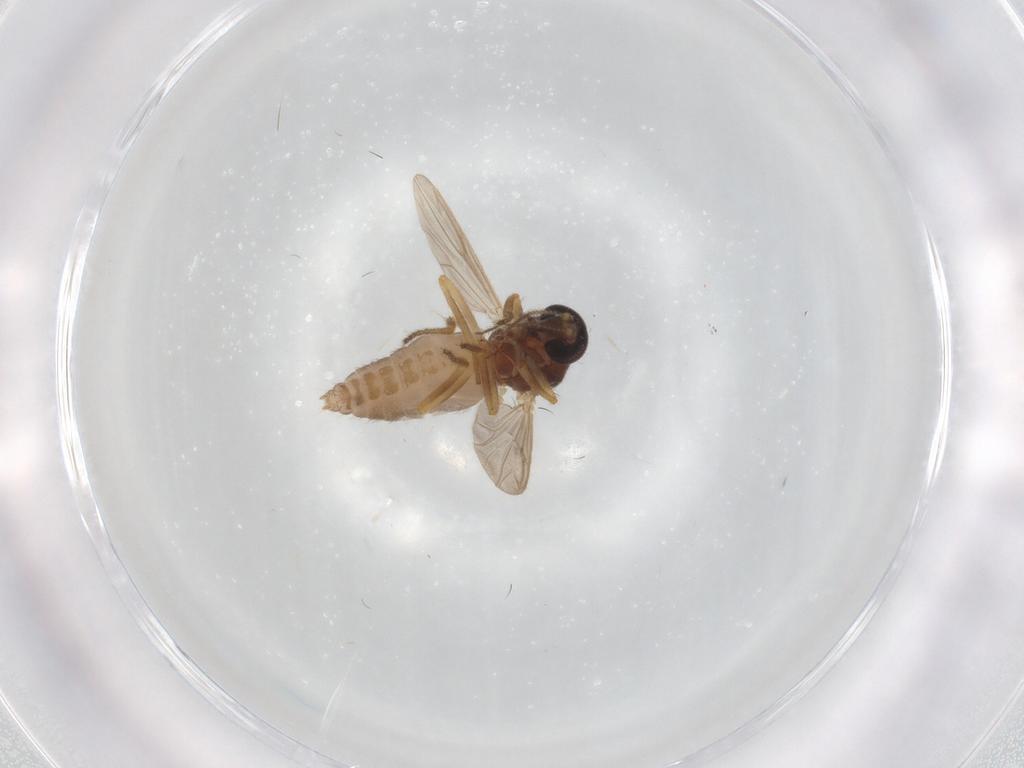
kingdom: Animalia
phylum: Arthropoda
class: Insecta
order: Diptera
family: Ceratopogonidae
